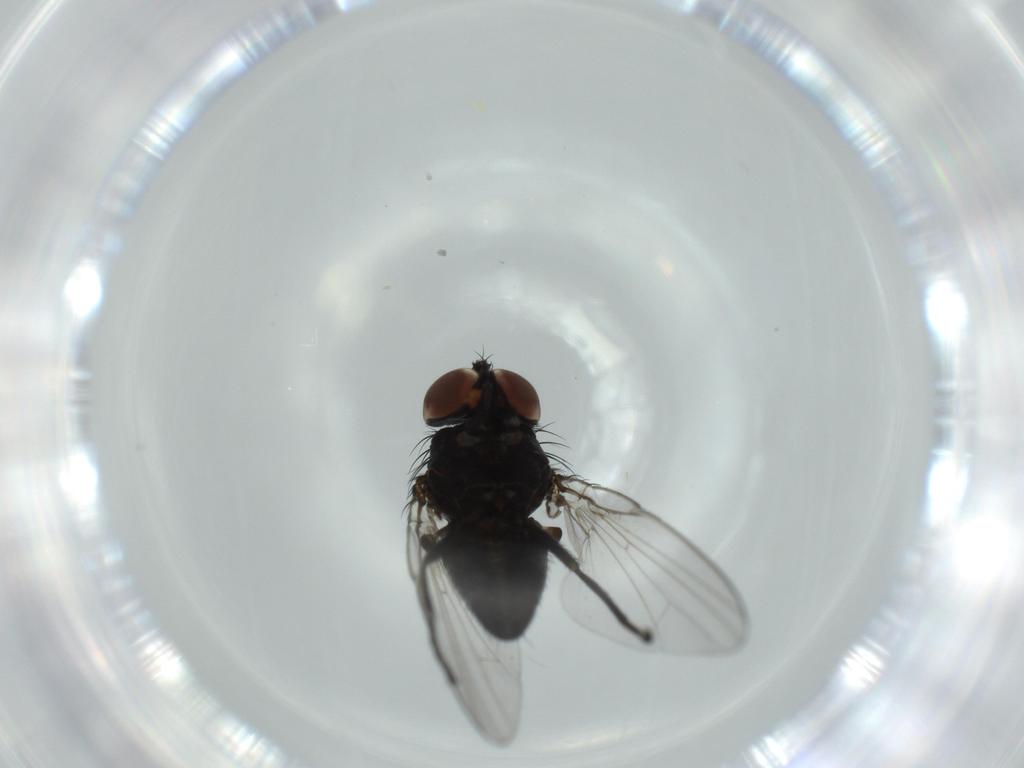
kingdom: Animalia
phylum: Arthropoda
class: Insecta
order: Diptera
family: Milichiidae
